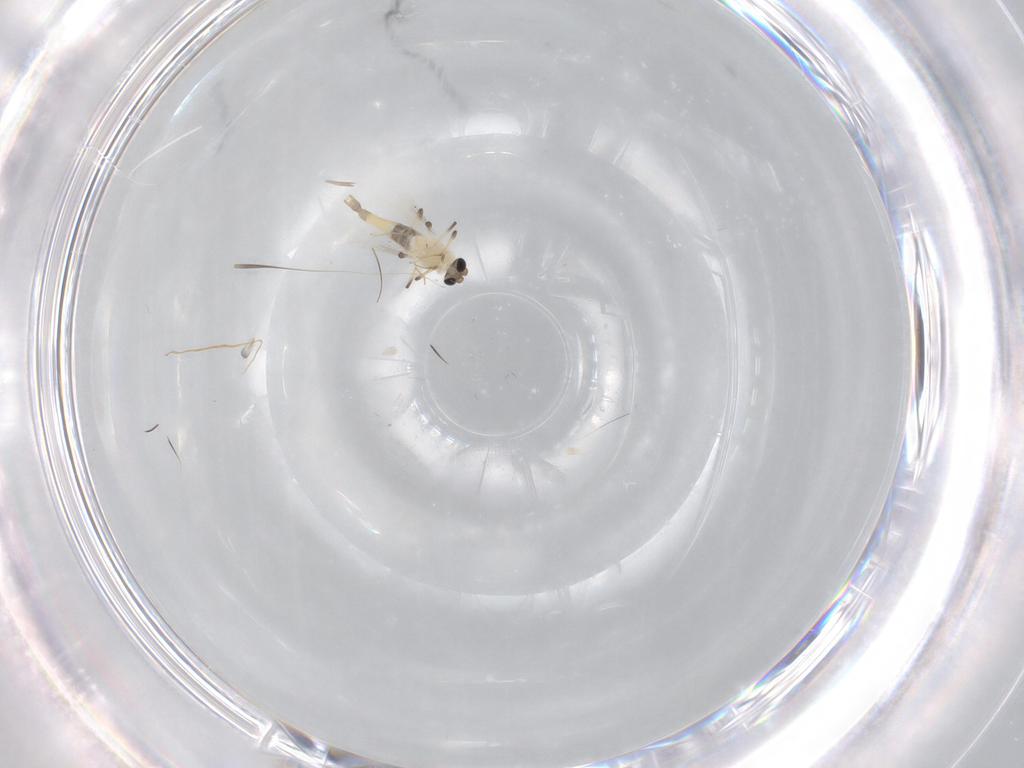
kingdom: Animalia
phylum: Arthropoda
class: Insecta
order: Diptera
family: Chironomidae
